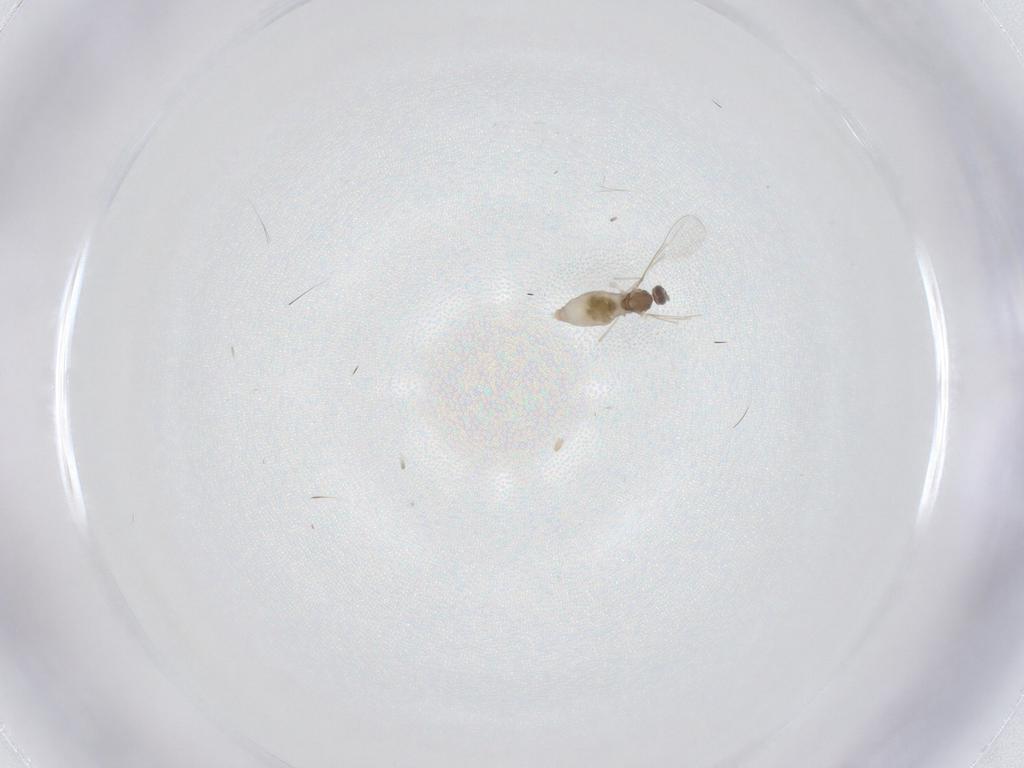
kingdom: Animalia
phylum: Arthropoda
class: Insecta
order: Diptera
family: Cecidomyiidae
